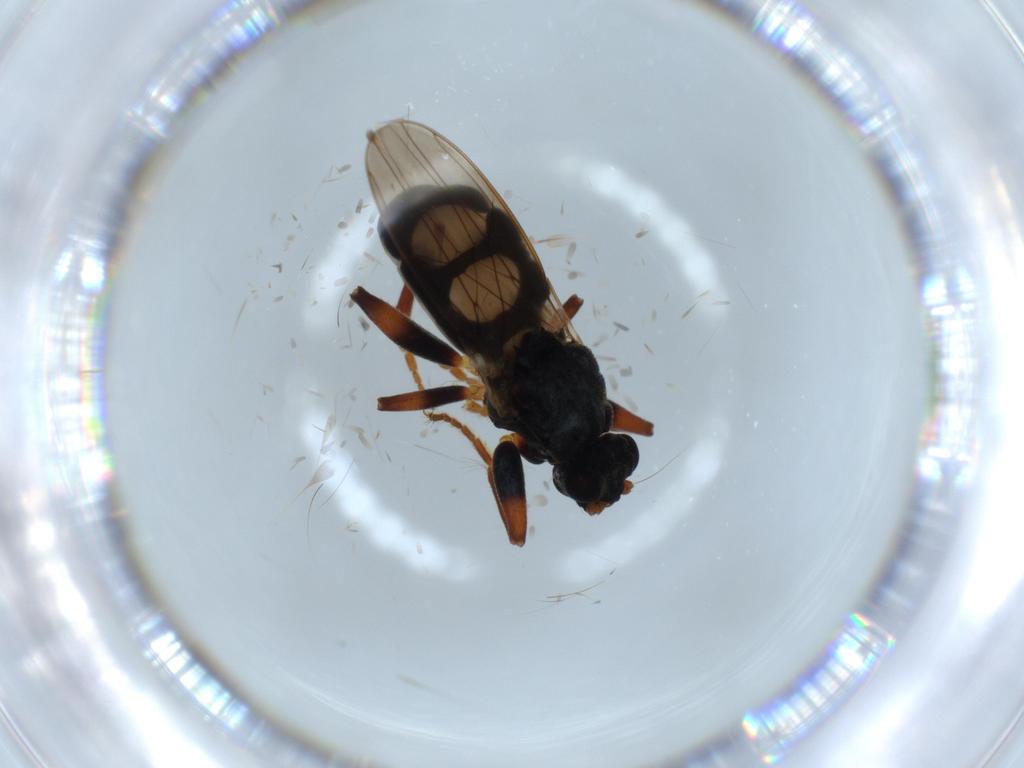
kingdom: Animalia
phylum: Arthropoda
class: Insecta
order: Diptera
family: Sphaeroceridae
